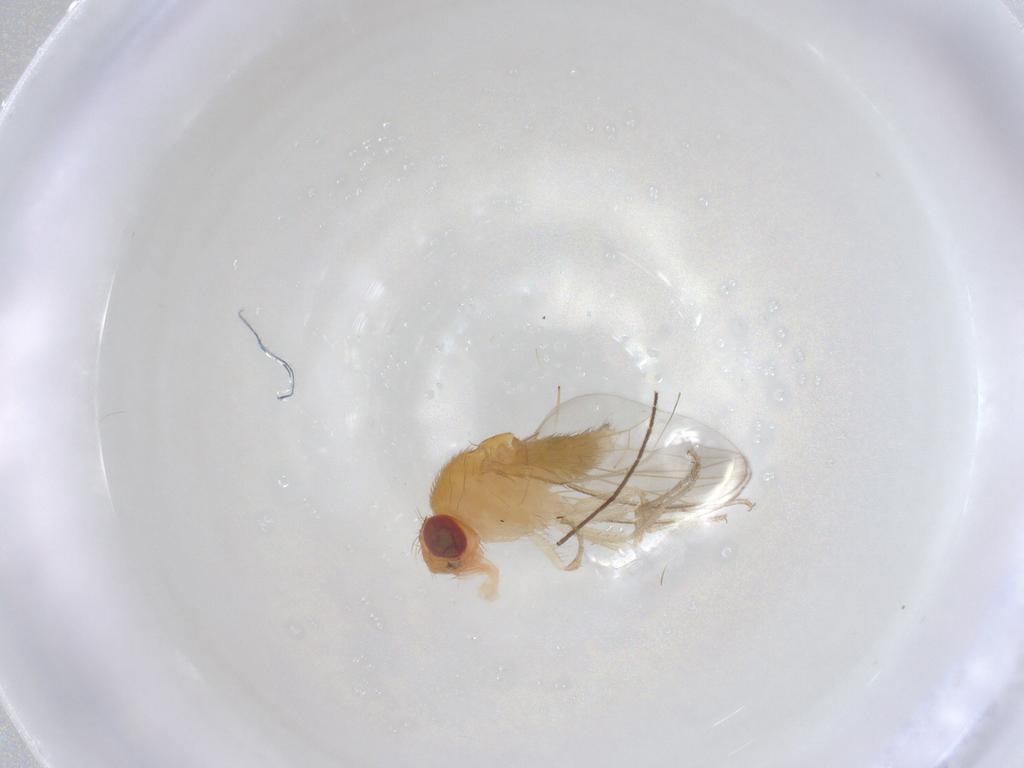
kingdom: Animalia
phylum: Arthropoda
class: Insecta
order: Diptera
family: Drosophilidae
